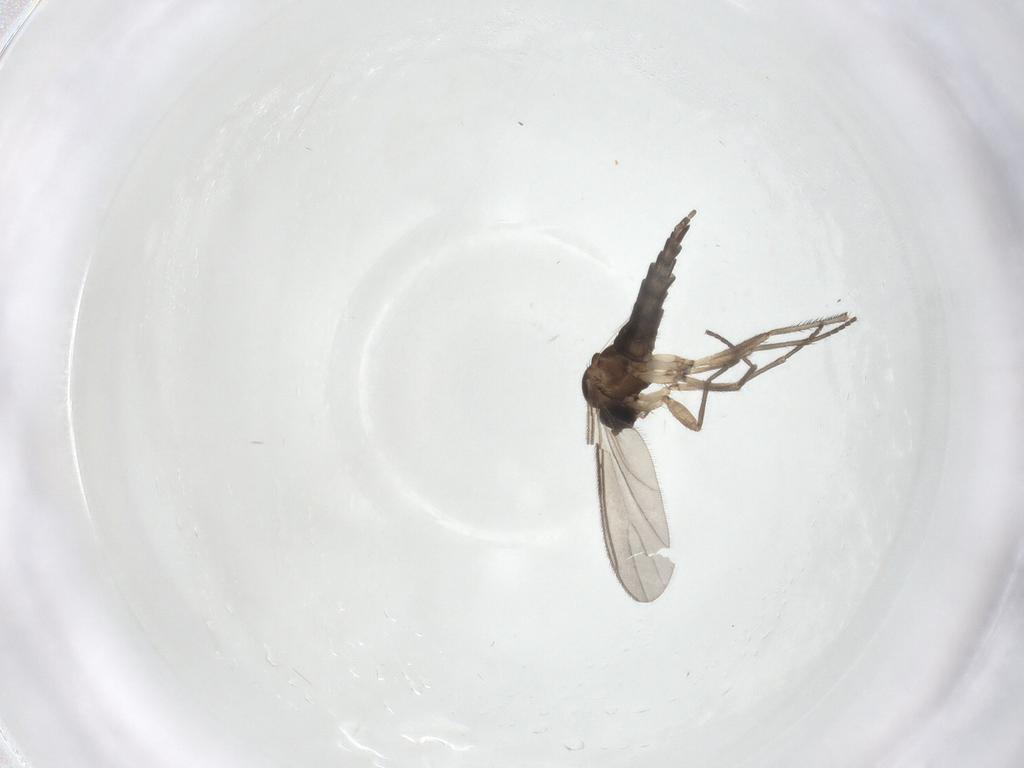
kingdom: Animalia
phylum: Arthropoda
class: Insecta
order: Diptera
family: Sciaridae
